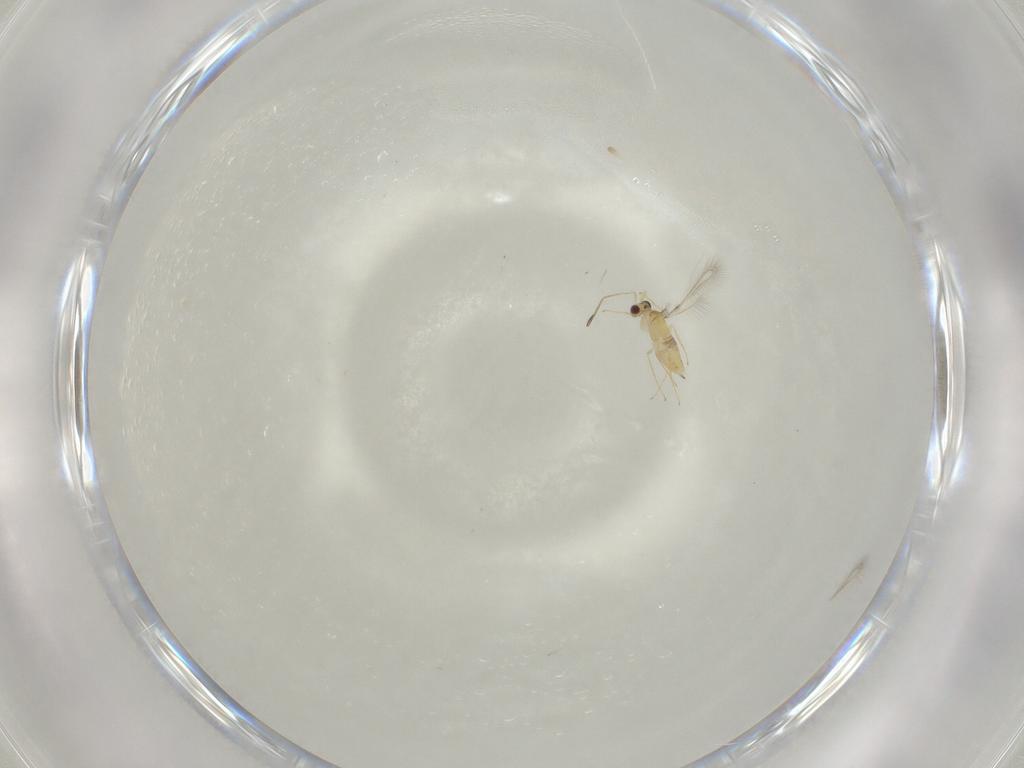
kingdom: Animalia
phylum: Arthropoda
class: Insecta
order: Hymenoptera
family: Mymaridae
